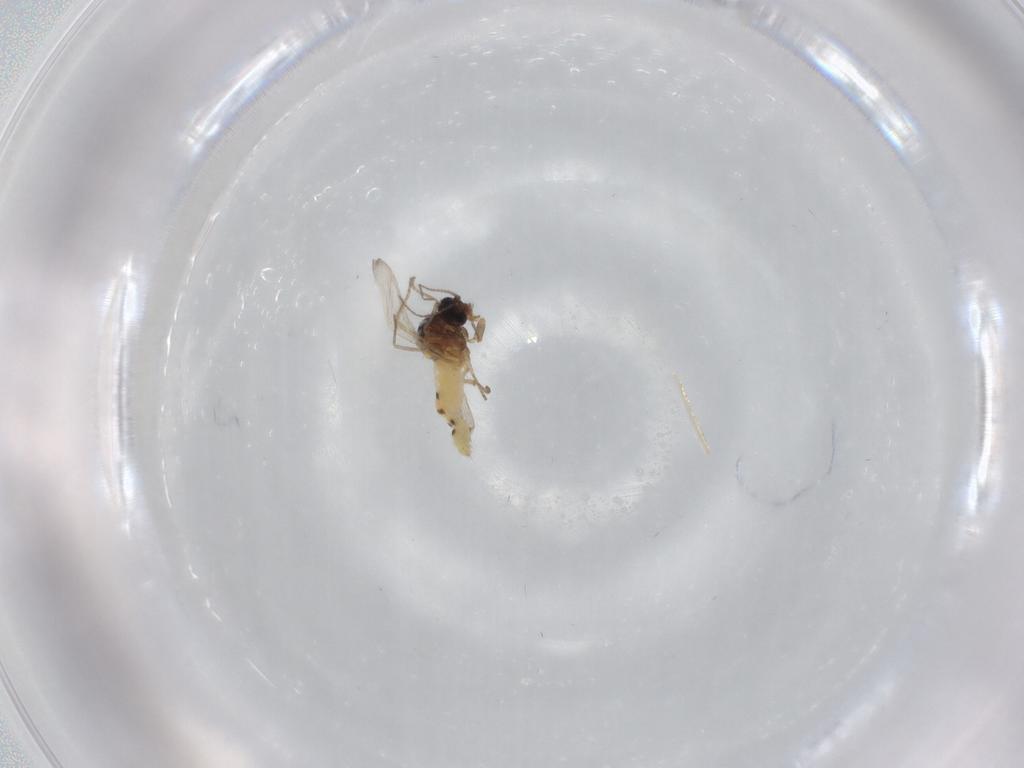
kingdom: Animalia
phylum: Arthropoda
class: Insecta
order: Diptera
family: Ceratopogonidae
